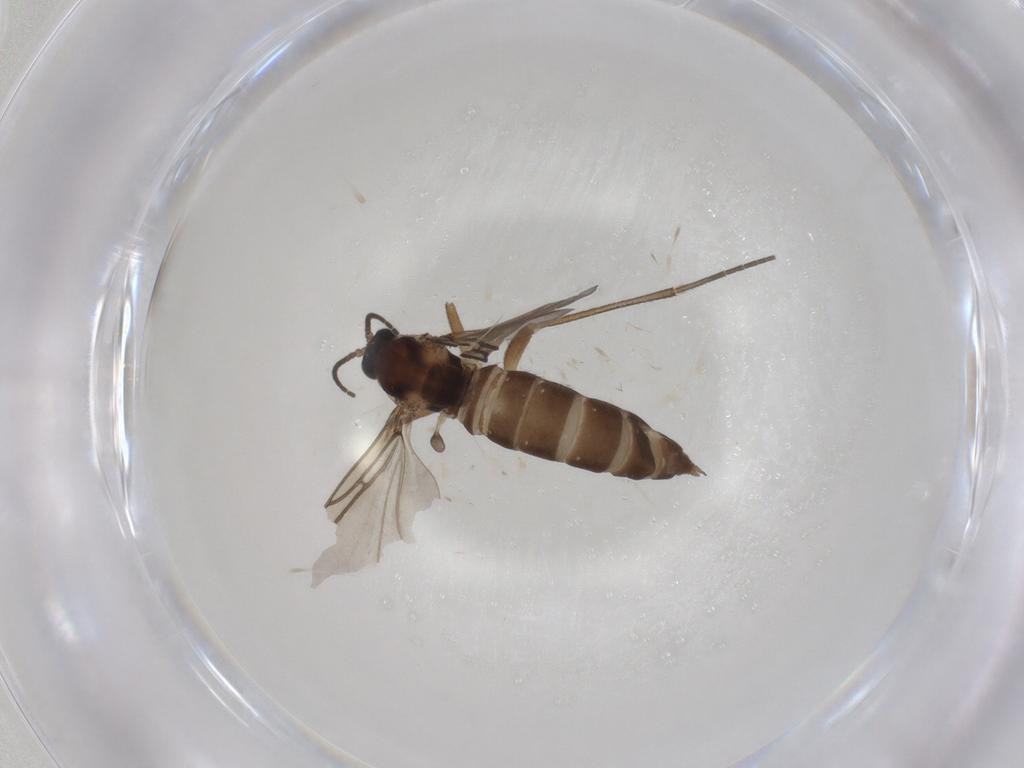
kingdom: Animalia
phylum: Arthropoda
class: Insecta
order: Diptera
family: Sciaridae
